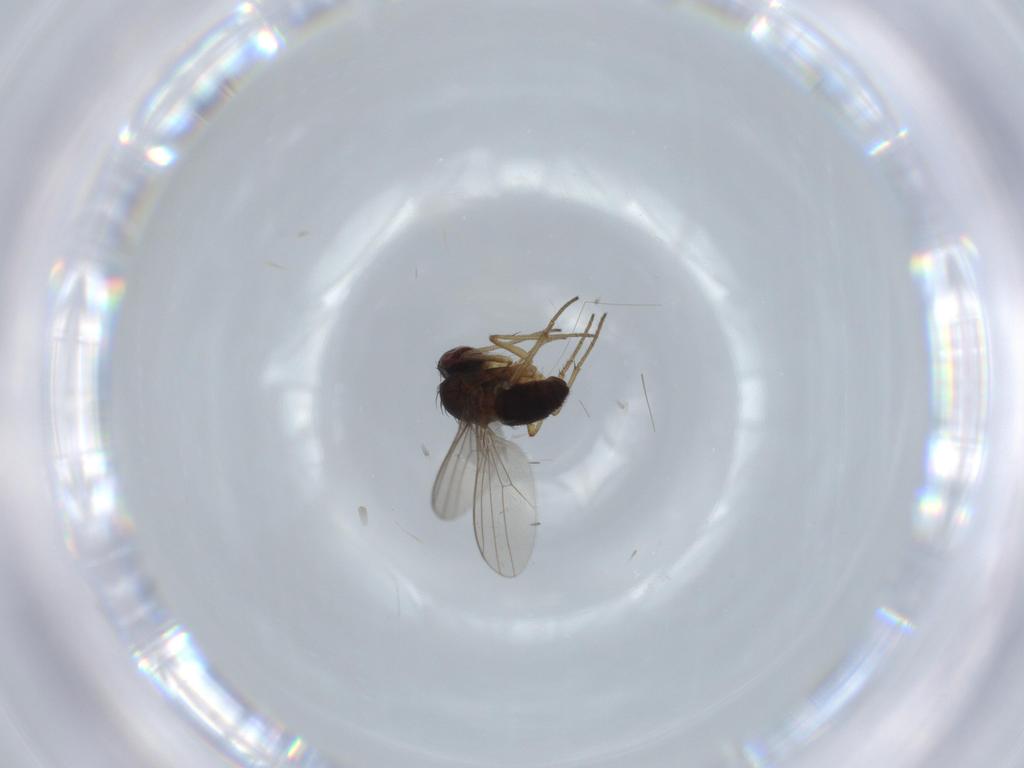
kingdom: Animalia
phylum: Arthropoda
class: Insecta
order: Diptera
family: Dolichopodidae
